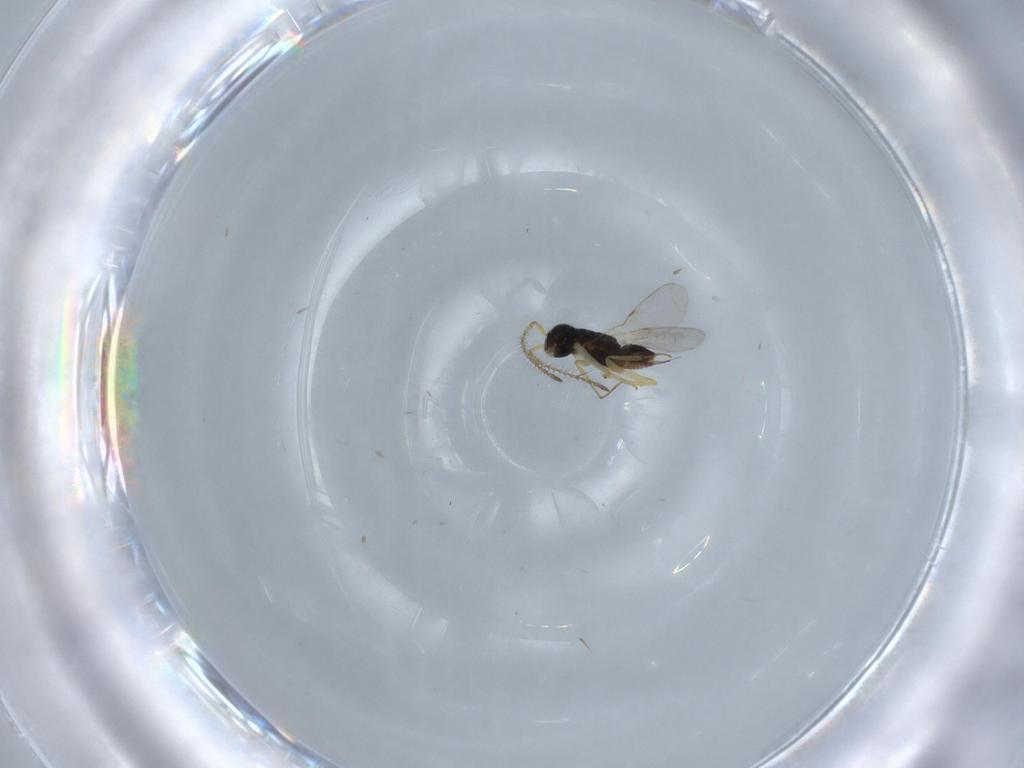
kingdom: Animalia
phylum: Arthropoda
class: Insecta
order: Hymenoptera
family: Diapriidae
